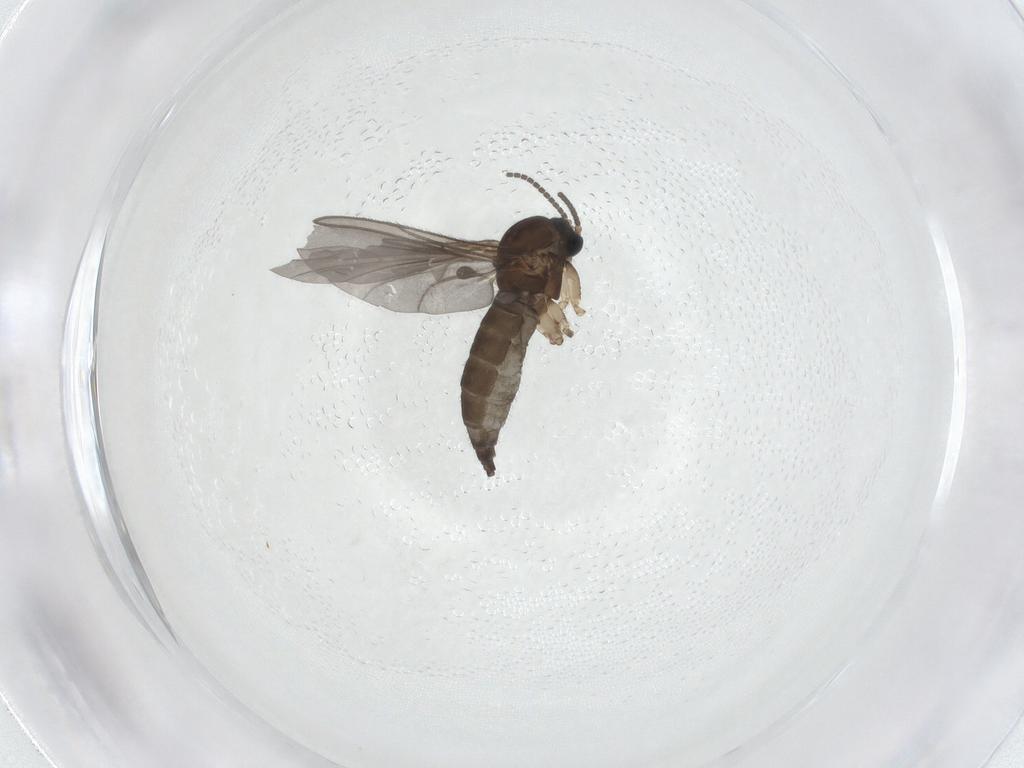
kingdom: Animalia
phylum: Arthropoda
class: Insecta
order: Diptera
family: Sciaridae
